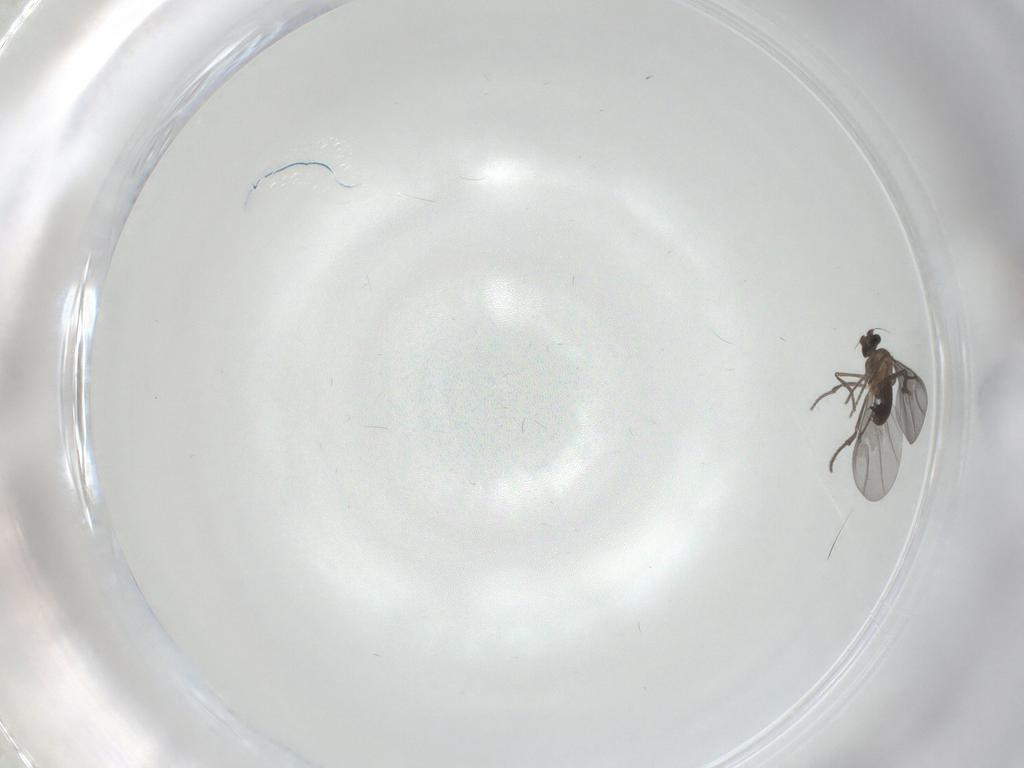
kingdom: Animalia
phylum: Arthropoda
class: Insecta
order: Diptera
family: Phoridae
